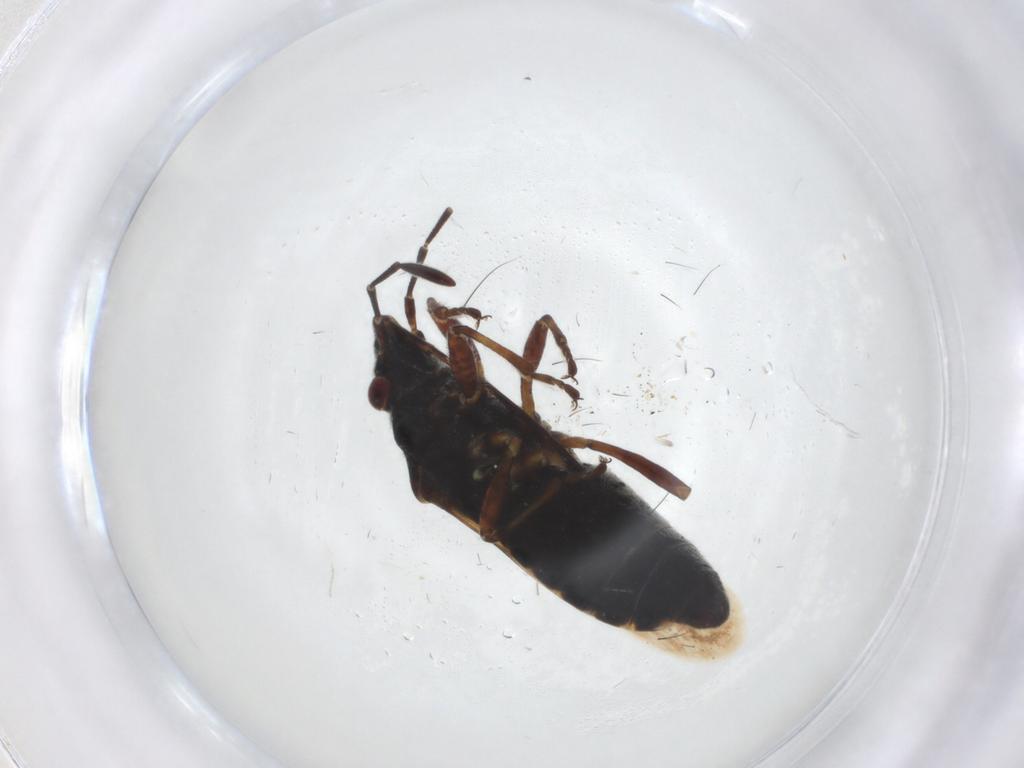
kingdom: Animalia
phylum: Arthropoda
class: Insecta
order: Hemiptera
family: Lygaeidae
